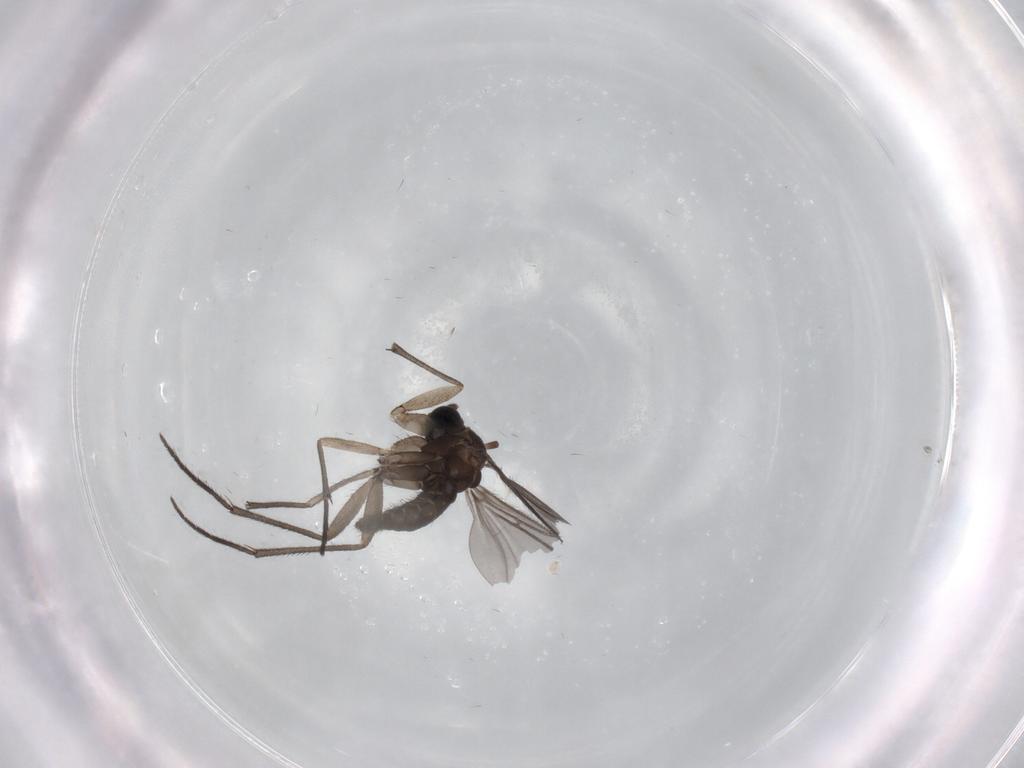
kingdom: Animalia
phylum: Arthropoda
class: Insecta
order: Diptera
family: Sciaridae
